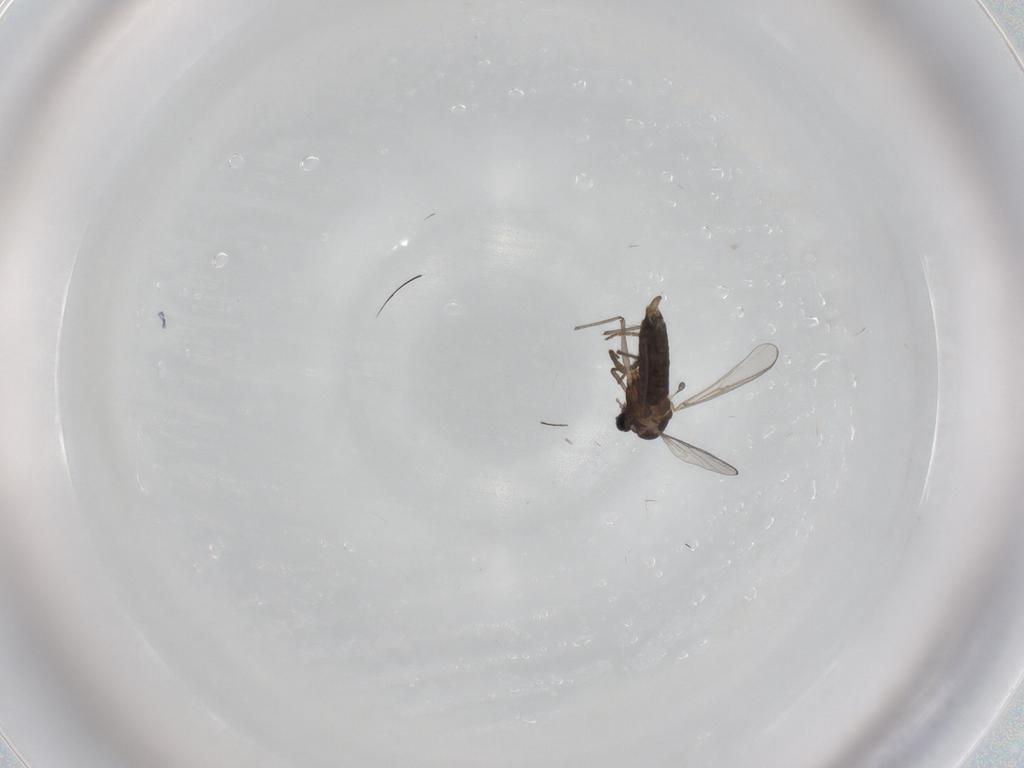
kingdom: Animalia
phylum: Arthropoda
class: Insecta
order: Diptera
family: Chironomidae
